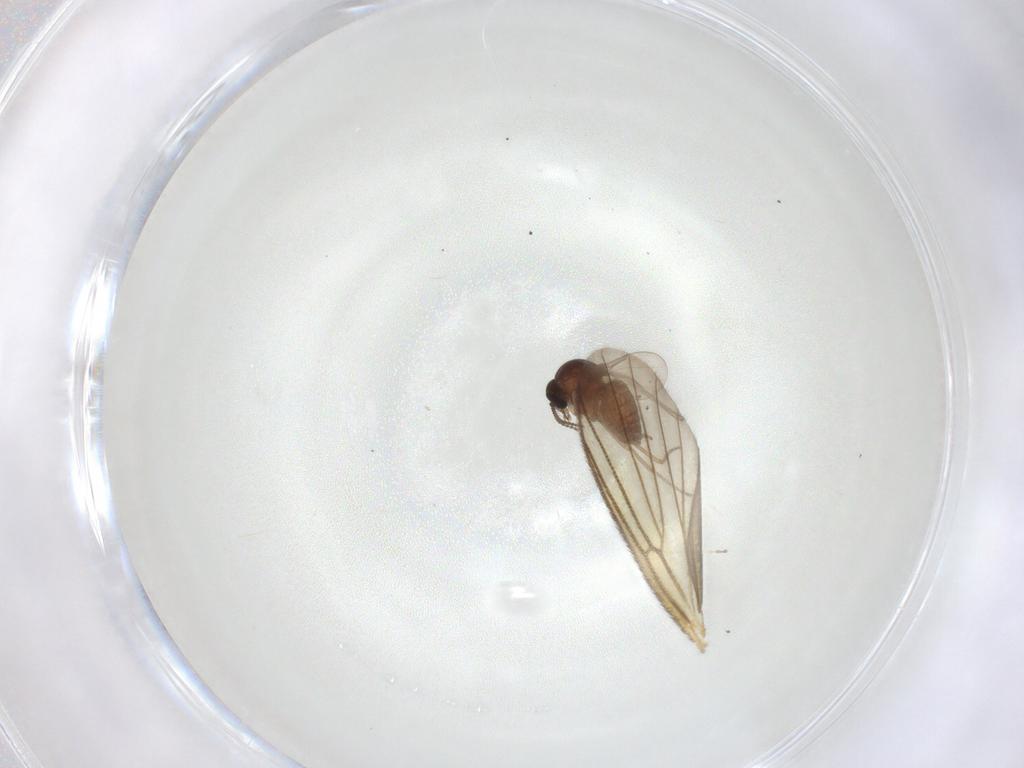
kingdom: Animalia
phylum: Arthropoda
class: Insecta
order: Diptera
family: Ceratopogonidae
